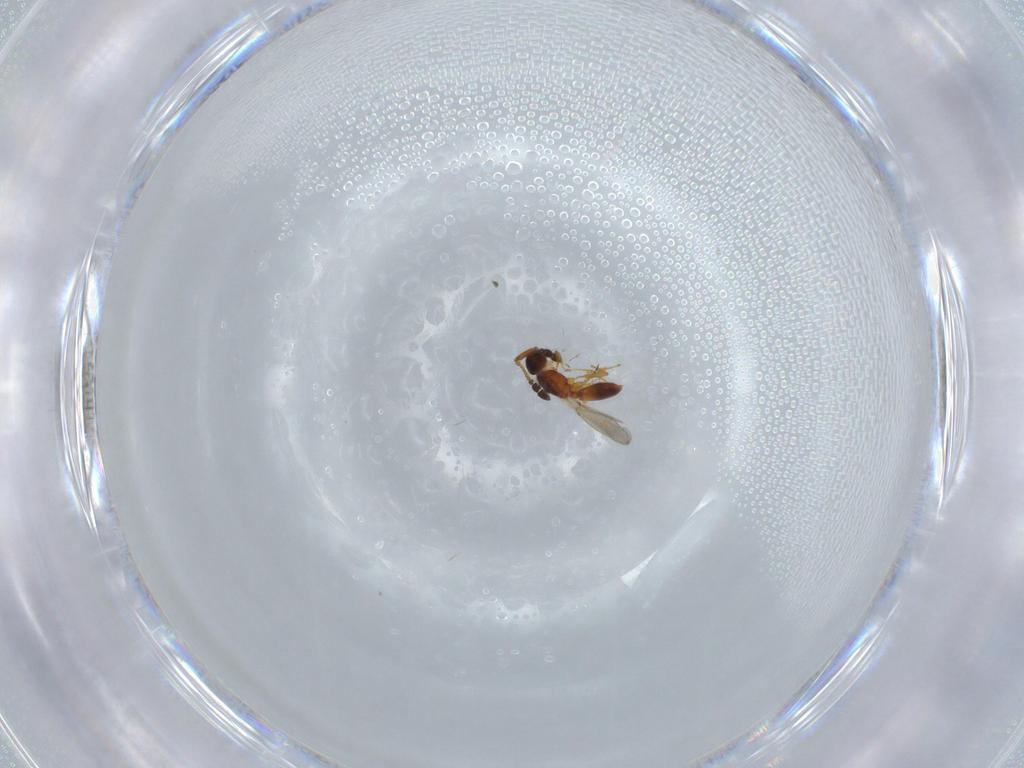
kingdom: Animalia
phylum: Arthropoda
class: Insecta
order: Hymenoptera
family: Diapriidae
